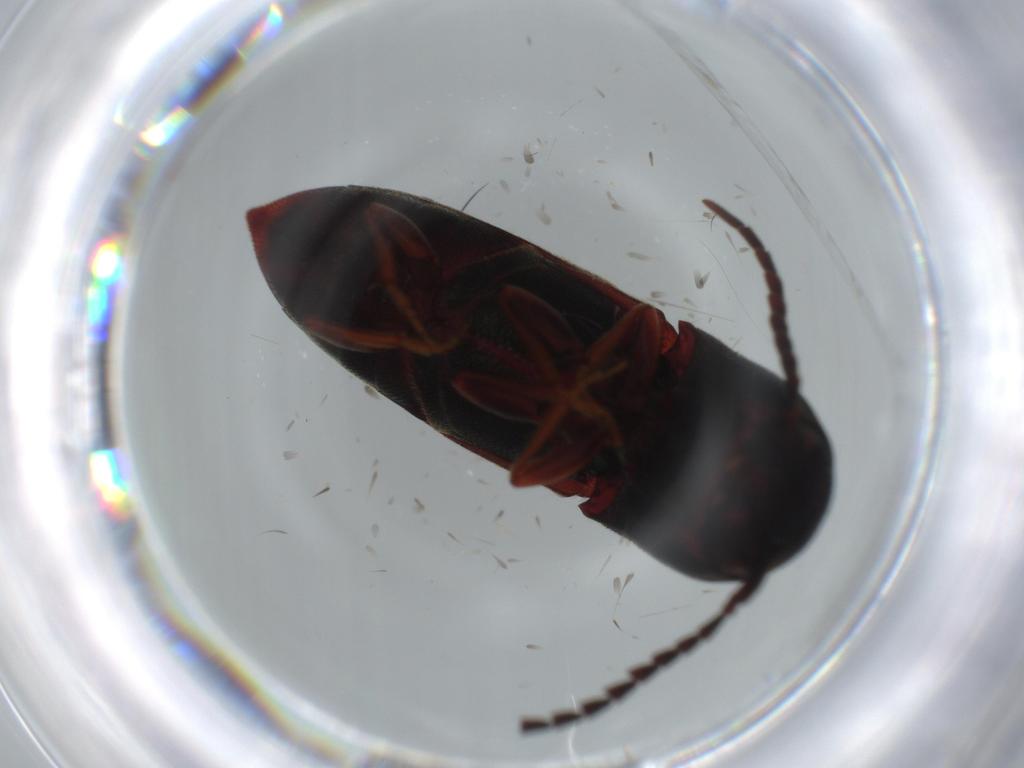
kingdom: Animalia
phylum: Arthropoda
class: Insecta
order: Coleoptera
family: Eucnemidae
